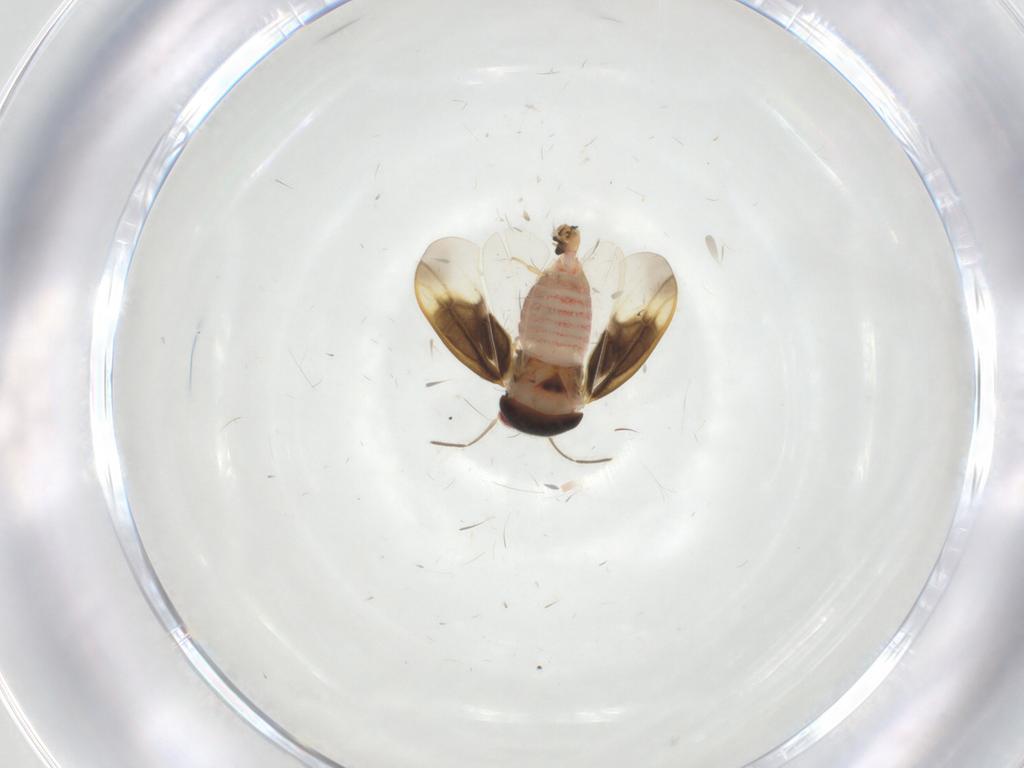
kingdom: Animalia
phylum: Arthropoda
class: Insecta
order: Hemiptera
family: Schizopteridae
